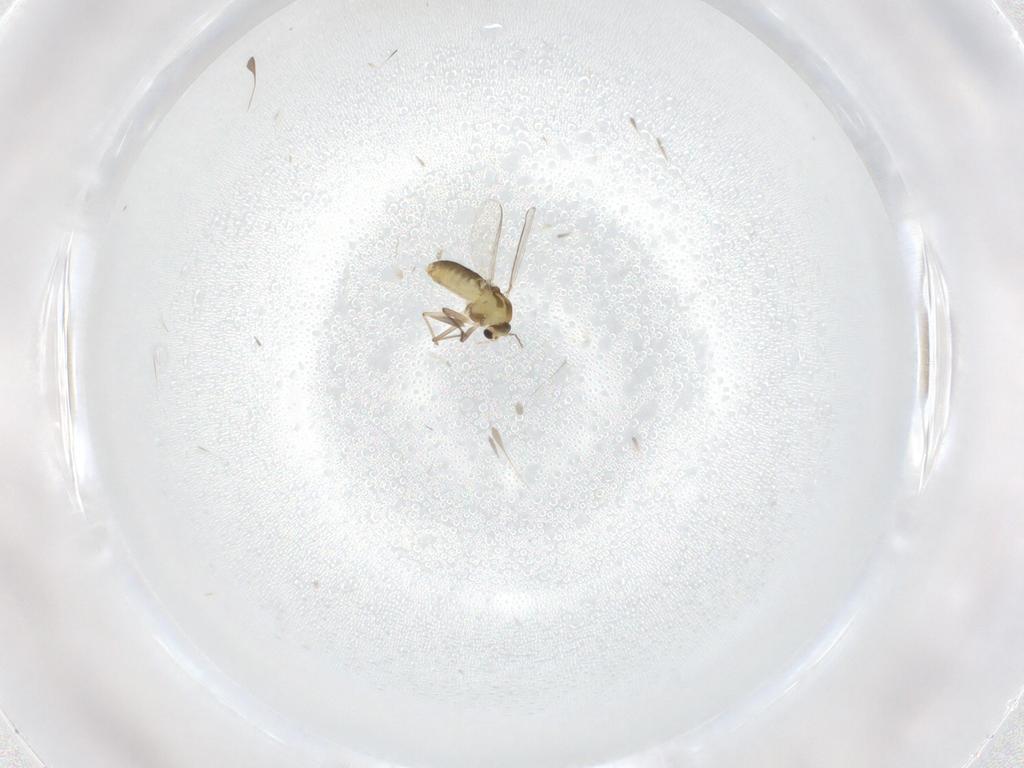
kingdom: Animalia
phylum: Arthropoda
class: Insecta
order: Diptera
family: Chironomidae
